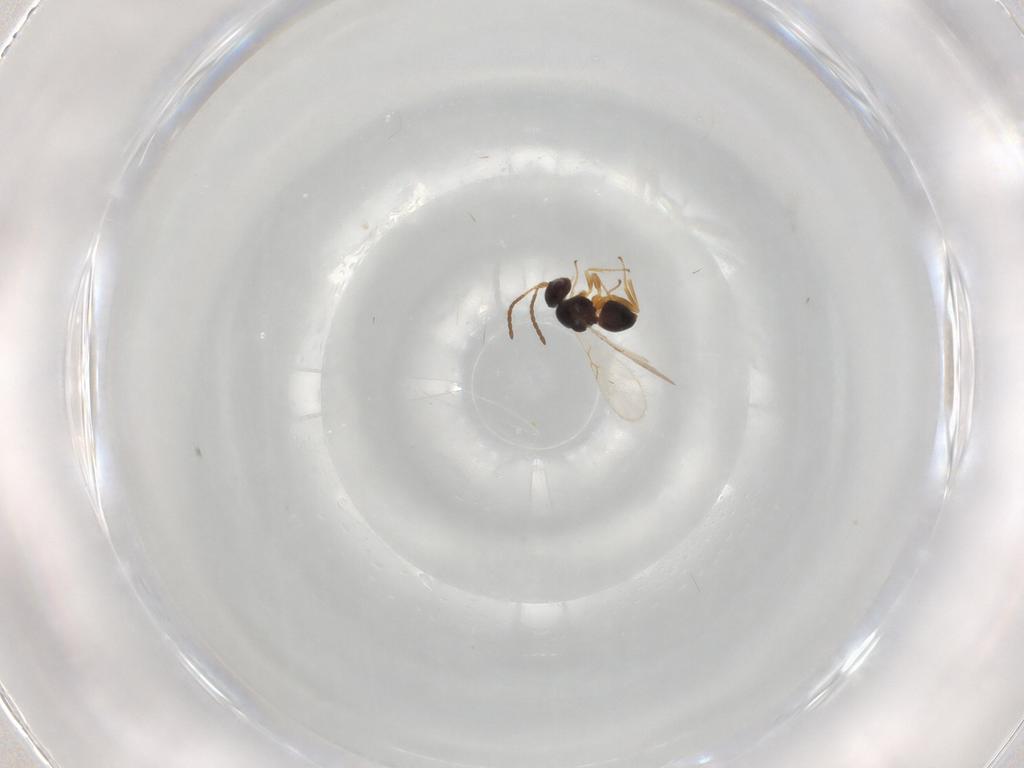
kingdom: Animalia
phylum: Arthropoda
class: Insecta
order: Hymenoptera
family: Figitidae
